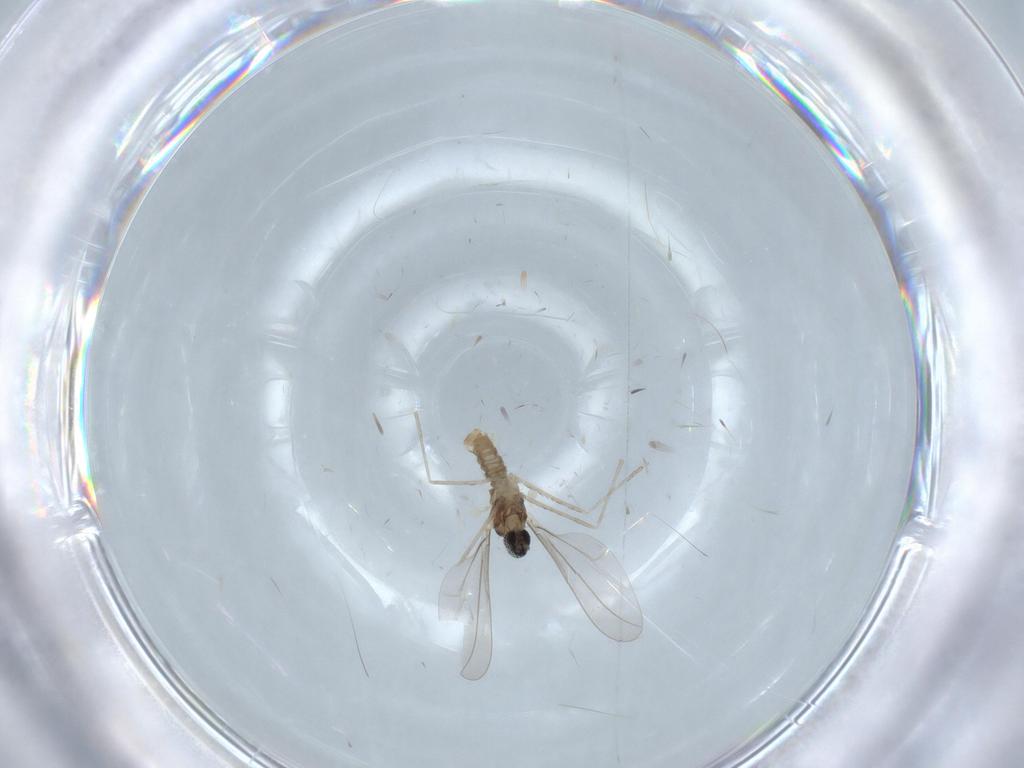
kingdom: Animalia
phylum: Arthropoda
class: Insecta
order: Diptera
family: Cecidomyiidae
